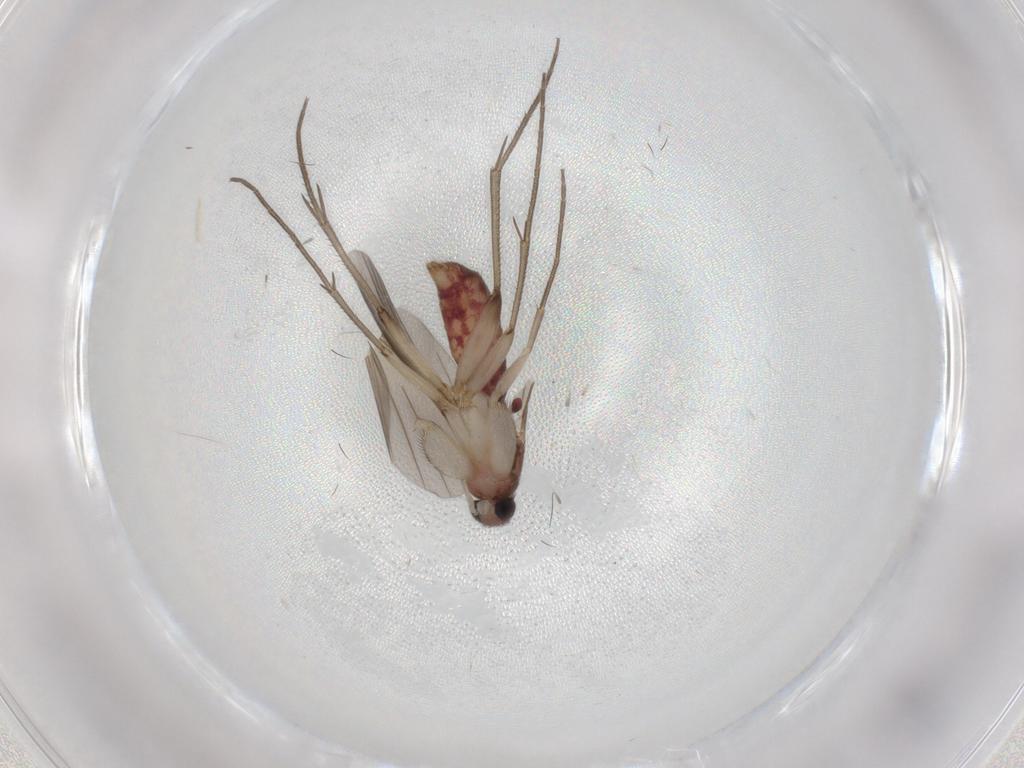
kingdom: Animalia
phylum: Arthropoda
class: Insecta
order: Diptera
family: Mycetophilidae
